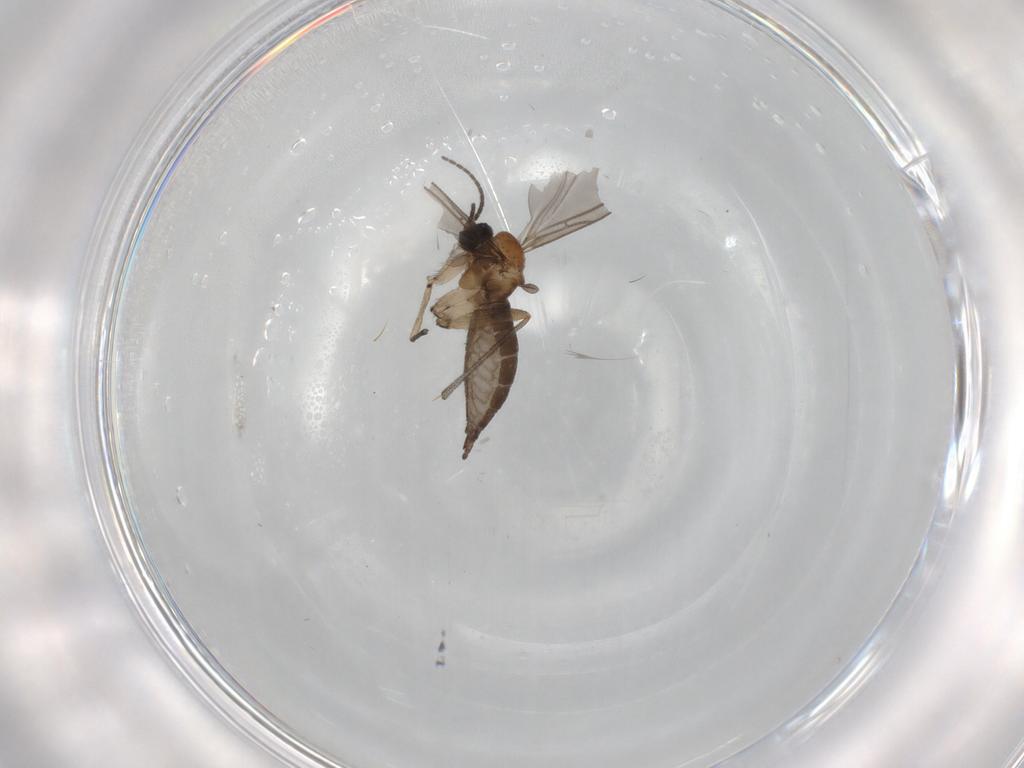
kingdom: Animalia
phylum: Arthropoda
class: Insecta
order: Diptera
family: Sciaridae
